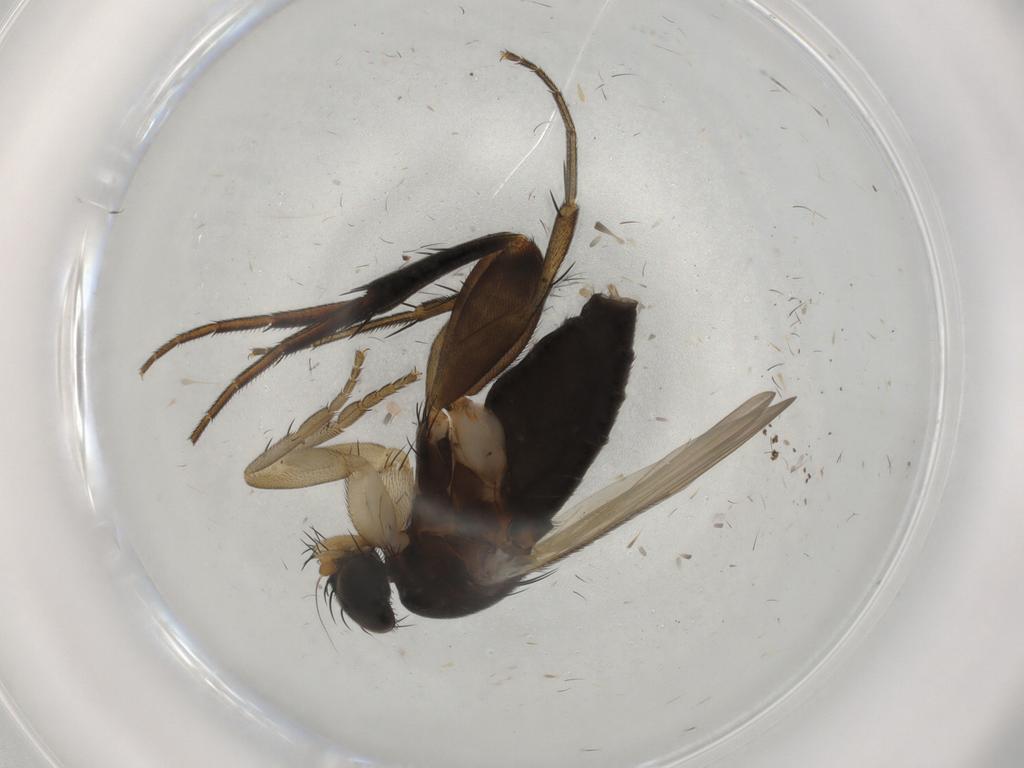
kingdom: Animalia
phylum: Arthropoda
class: Insecta
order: Diptera
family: Phoridae
